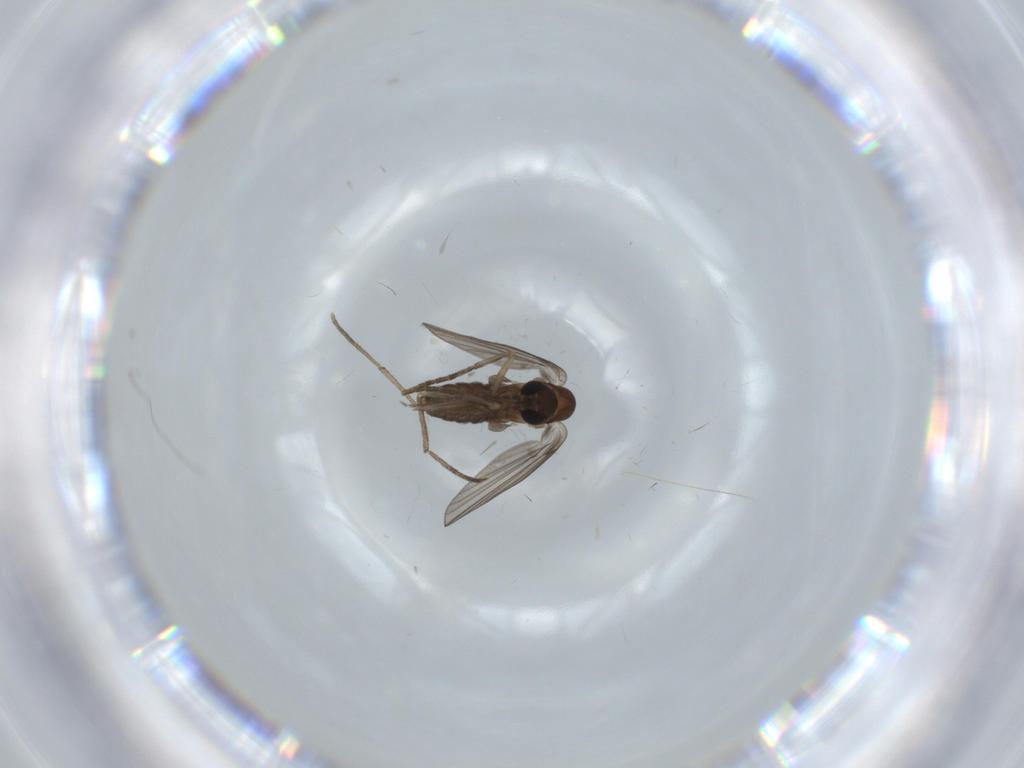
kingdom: Animalia
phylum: Arthropoda
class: Insecta
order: Diptera
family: Psychodidae
